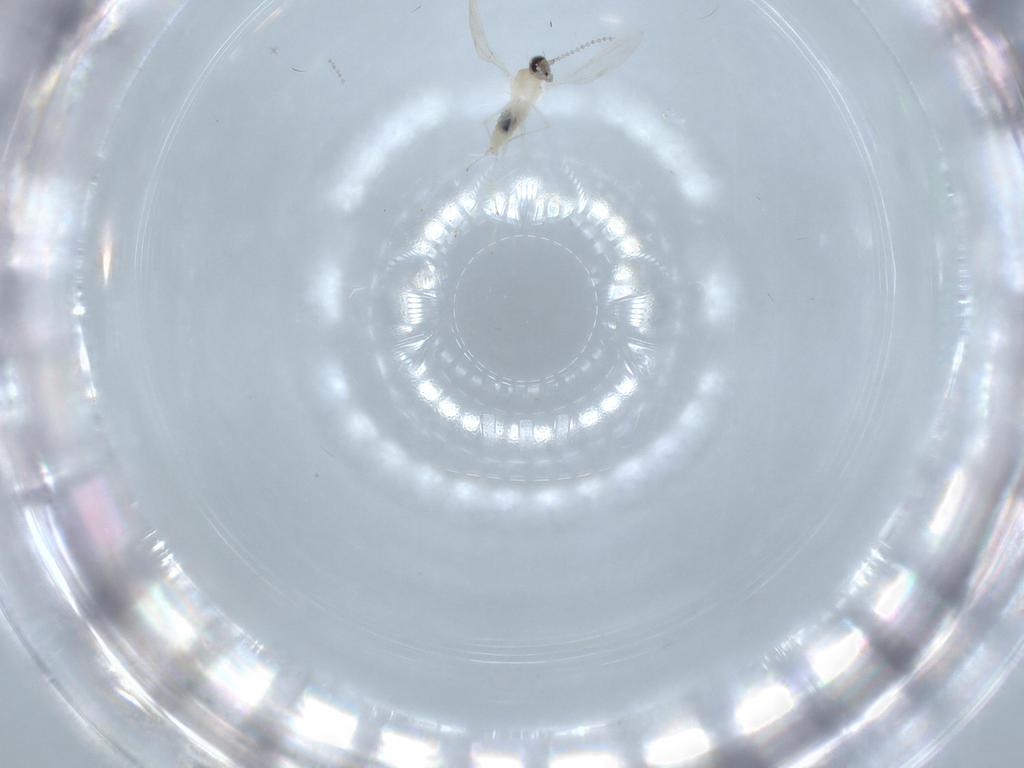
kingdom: Animalia
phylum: Arthropoda
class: Insecta
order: Diptera
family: Cecidomyiidae
